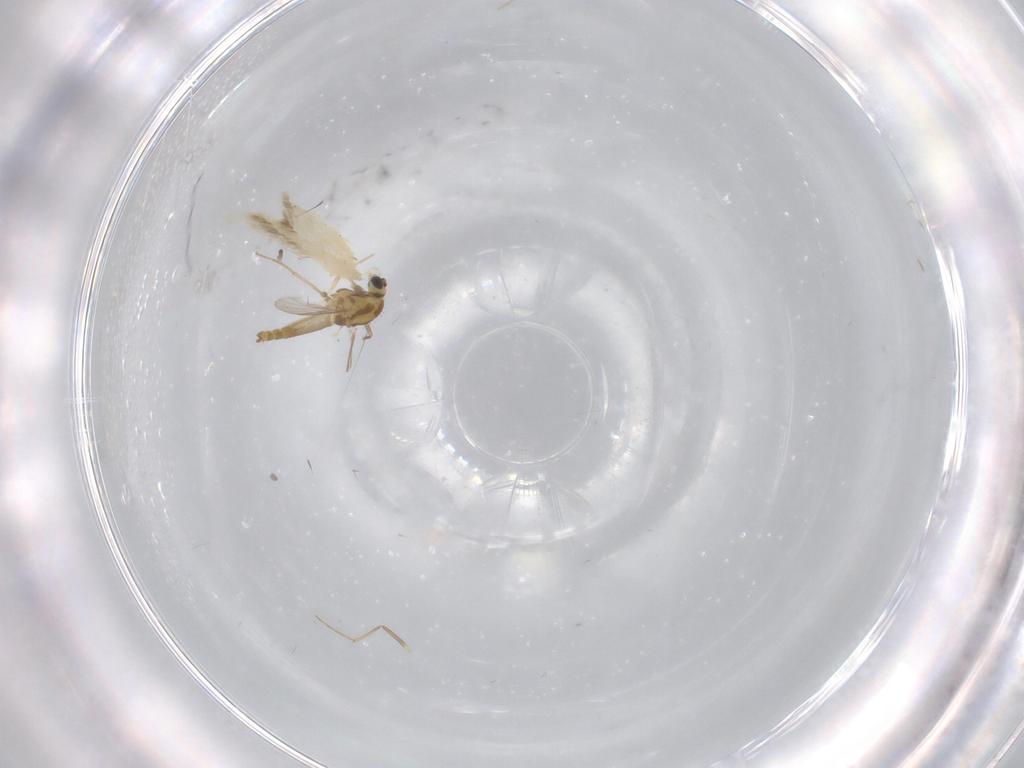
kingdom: Animalia
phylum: Arthropoda
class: Insecta
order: Diptera
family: Chironomidae
